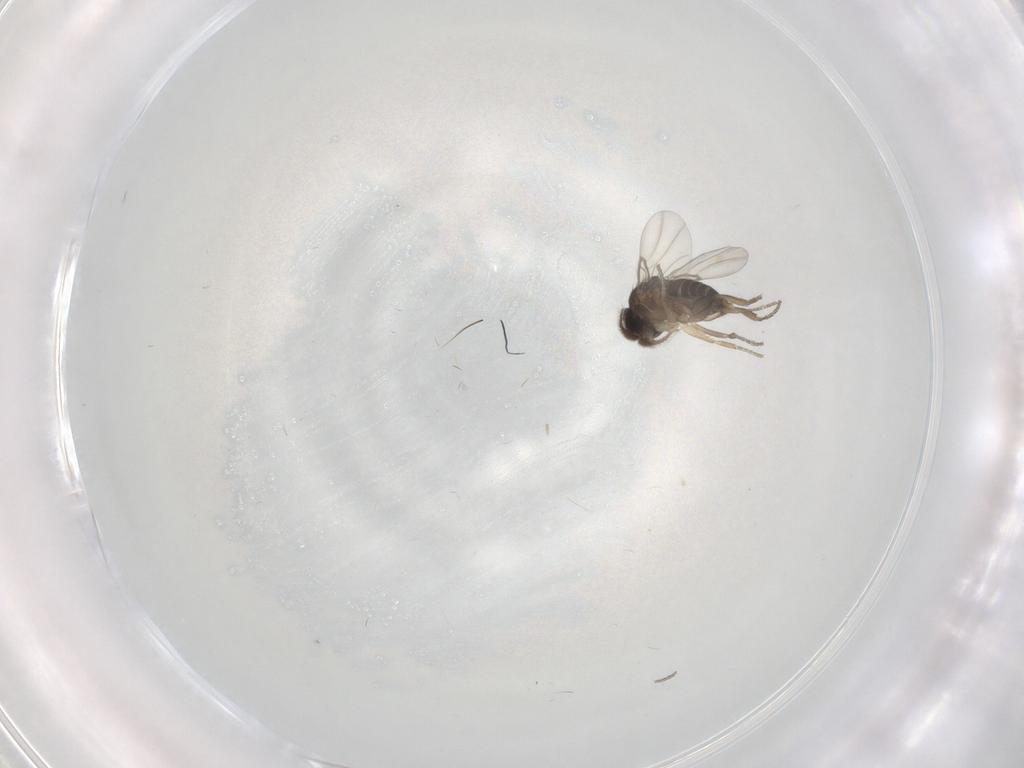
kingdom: Animalia
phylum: Arthropoda
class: Insecta
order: Diptera
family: Phoridae
